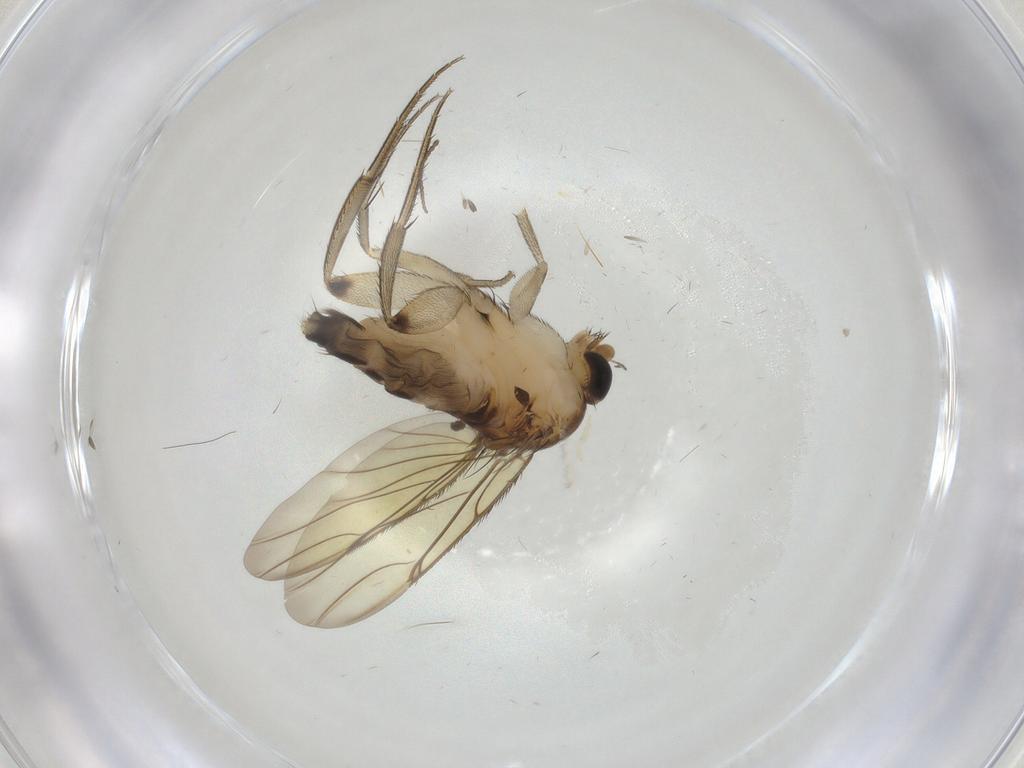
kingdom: Animalia
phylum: Arthropoda
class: Insecta
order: Diptera
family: Phoridae
